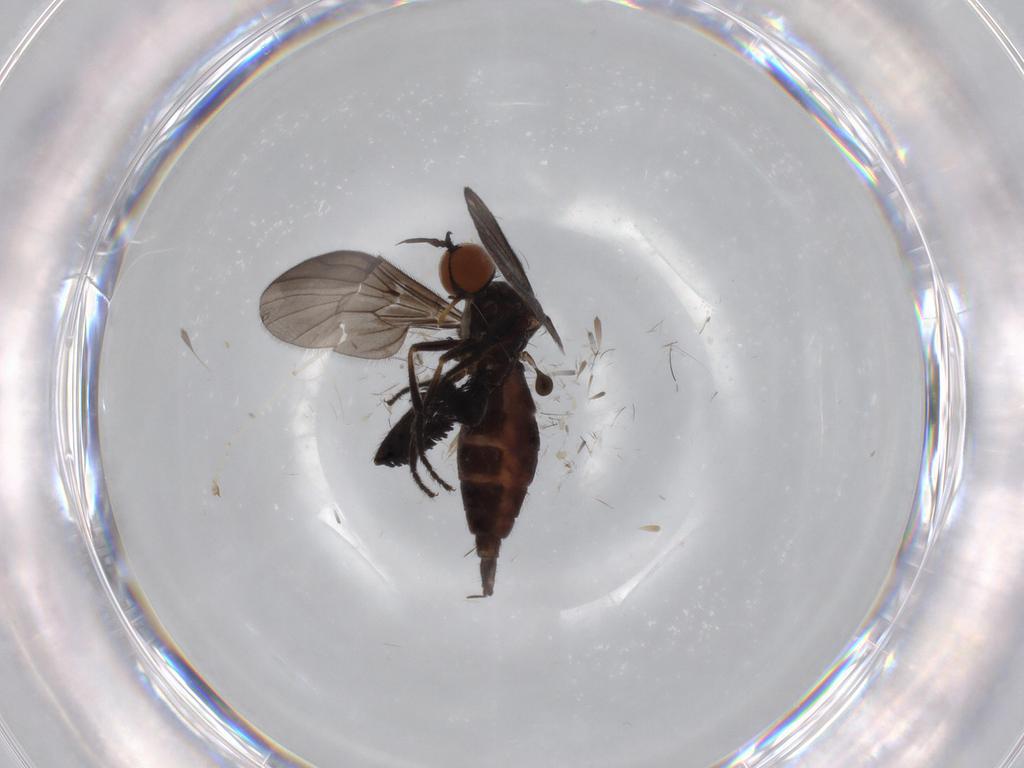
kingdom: Animalia
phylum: Arthropoda
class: Insecta
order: Diptera
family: Empididae
